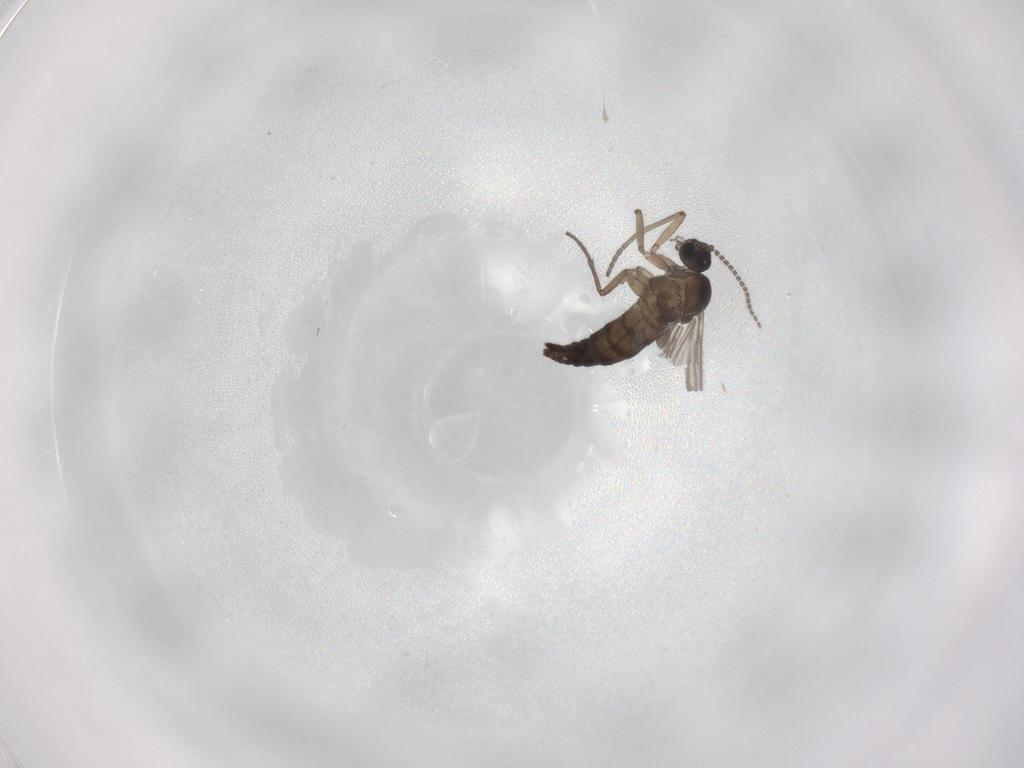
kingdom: Animalia
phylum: Arthropoda
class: Insecta
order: Diptera
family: Sciaridae
